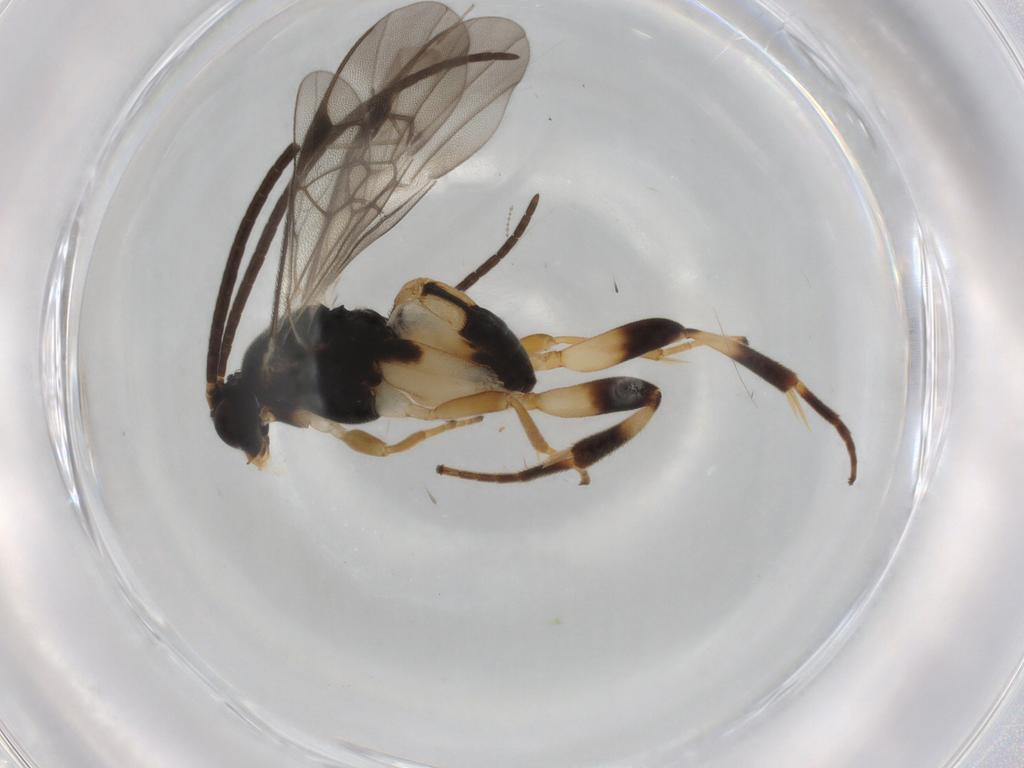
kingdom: Animalia
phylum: Arthropoda
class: Insecta
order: Hymenoptera
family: Braconidae
